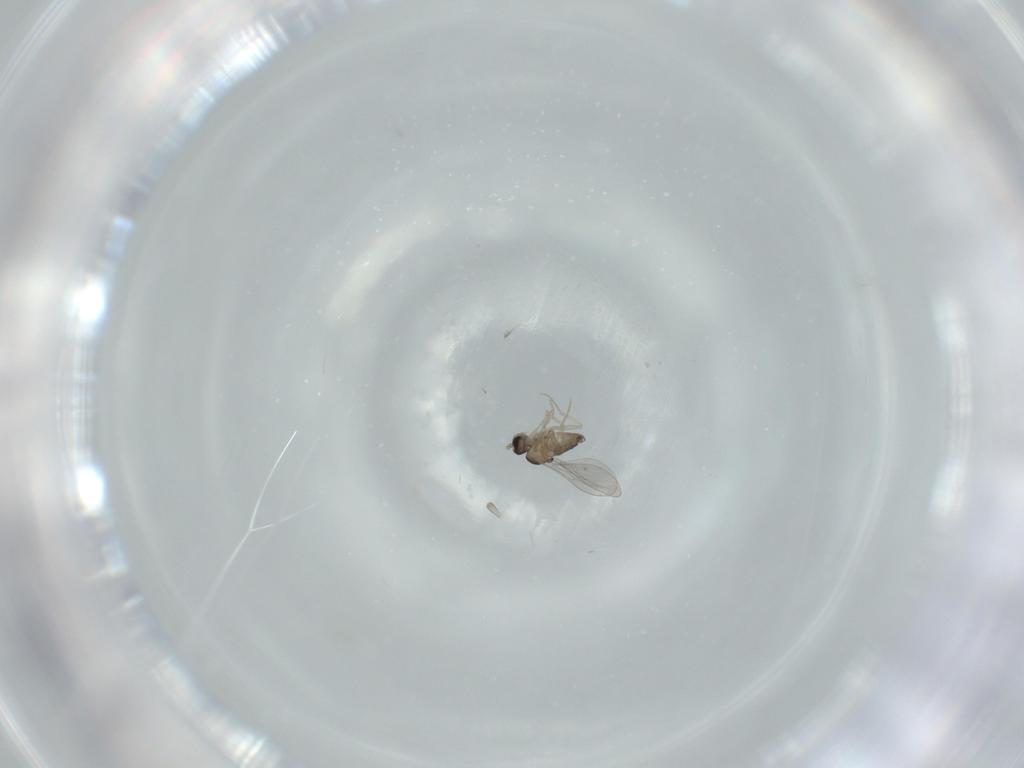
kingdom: Animalia
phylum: Arthropoda
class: Insecta
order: Diptera
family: Cecidomyiidae
